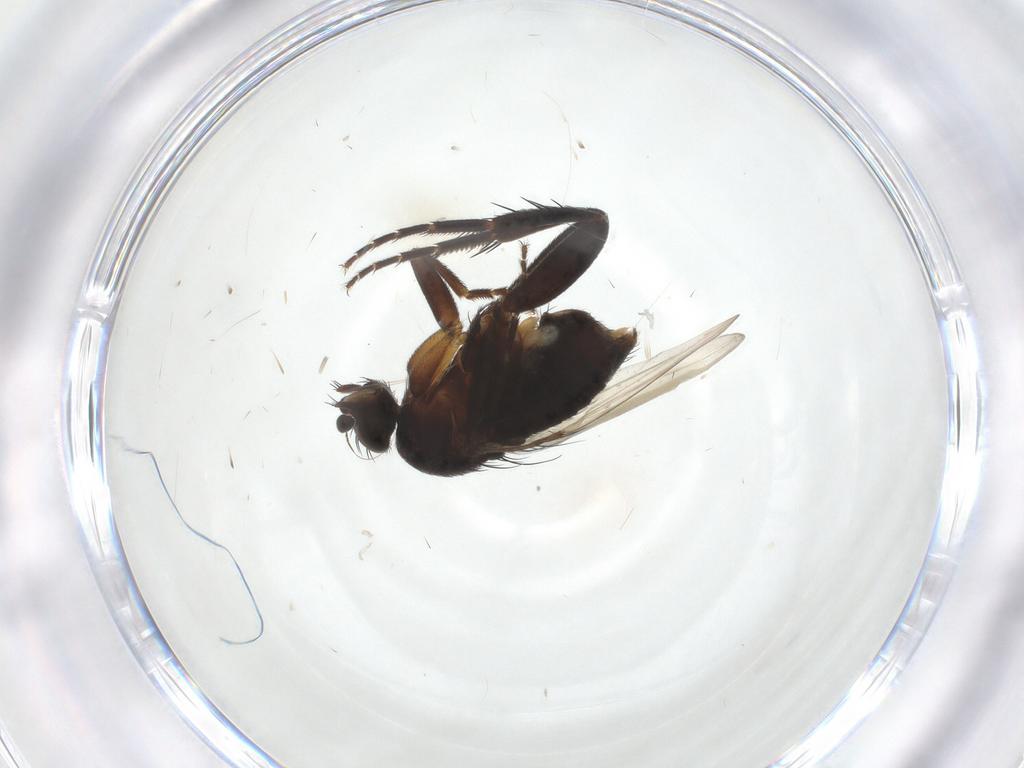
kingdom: Animalia
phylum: Arthropoda
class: Insecta
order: Diptera
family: Phoridae
